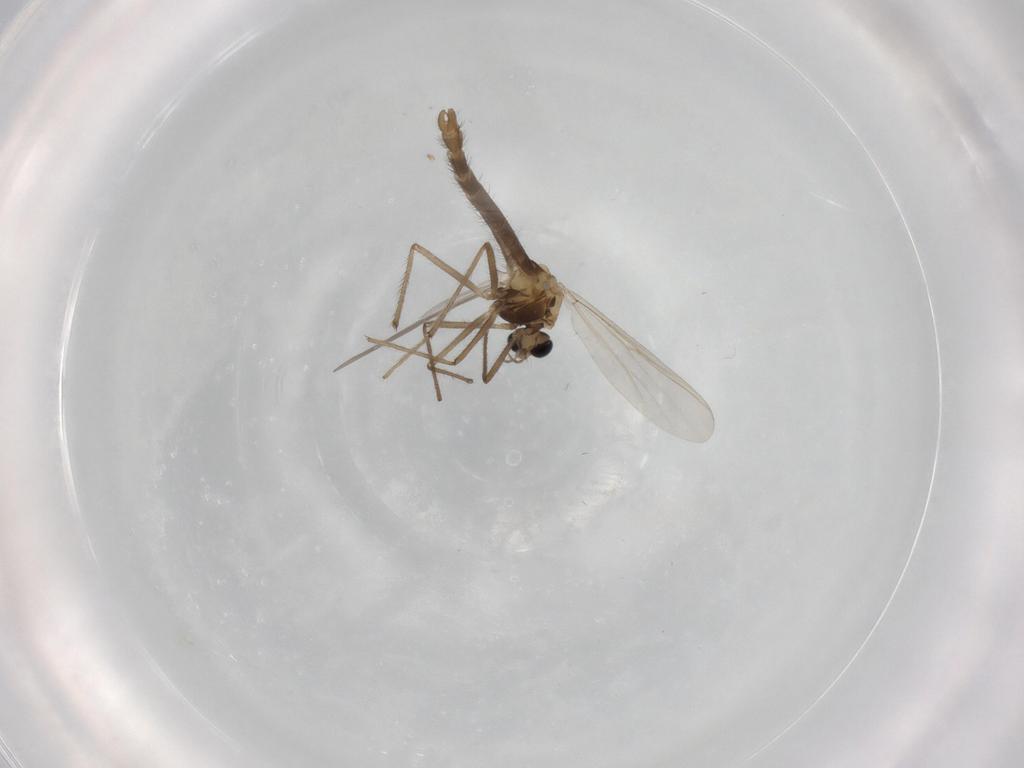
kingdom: Animalia
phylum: Arthropoda
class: Insecta
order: Diptera
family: Chironomidae
